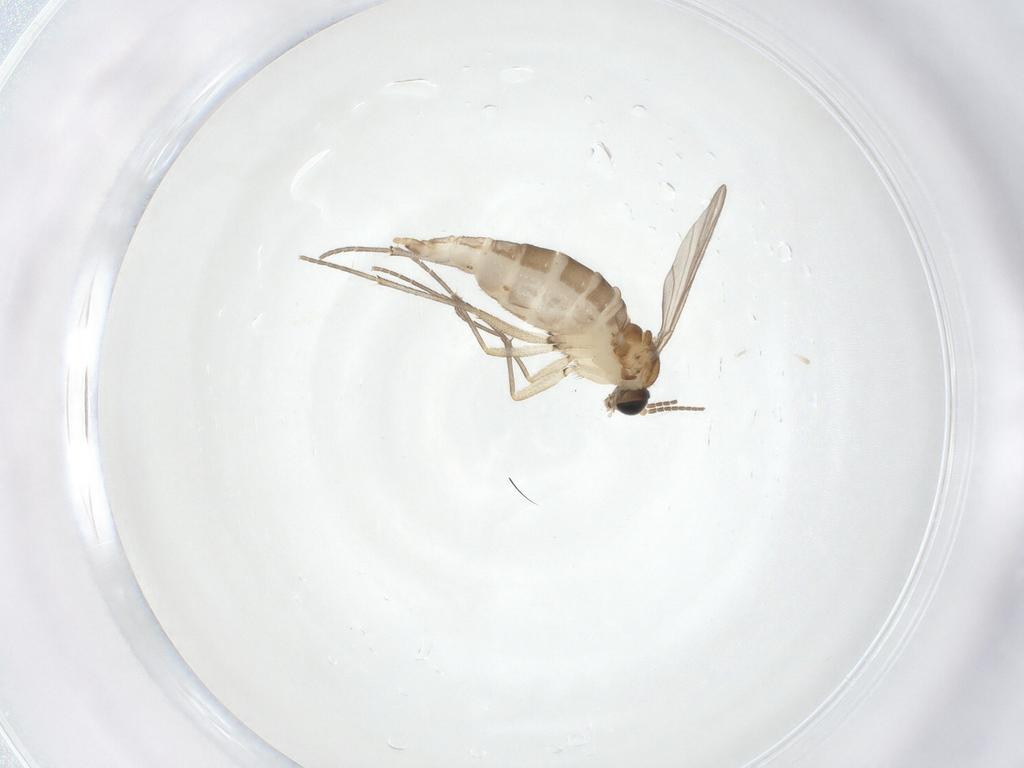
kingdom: Animalia
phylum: Arthropoda
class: Insecta
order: Diptera
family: Sciaridae
